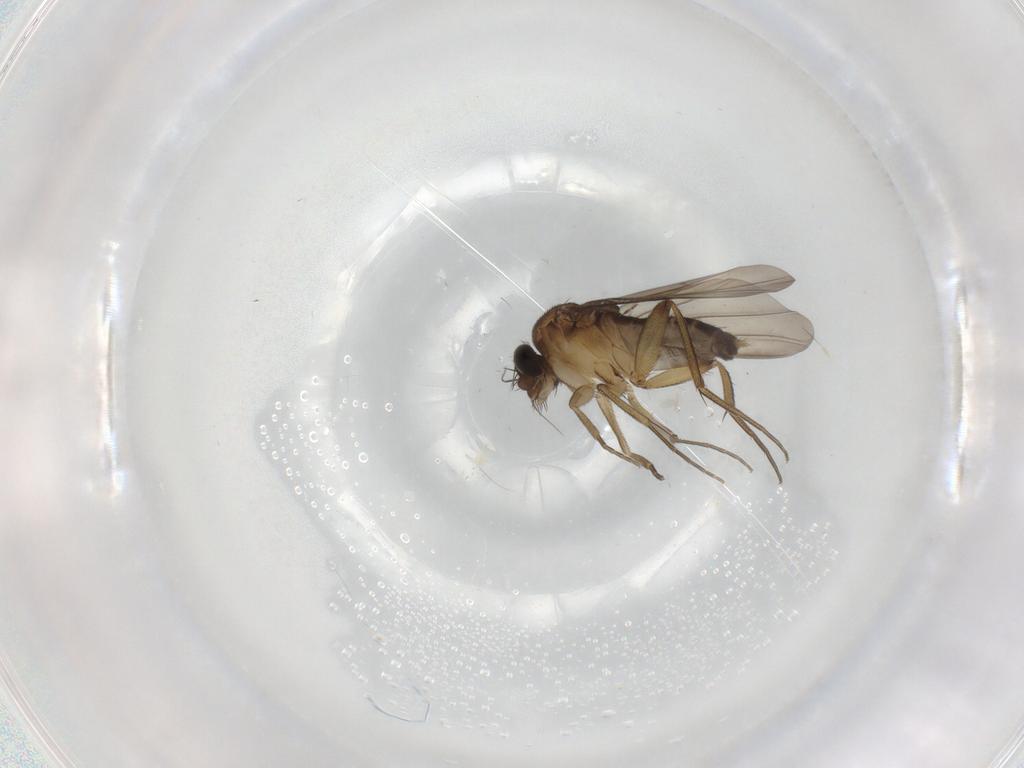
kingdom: Animalia
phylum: Arthropoda
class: Insecta
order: Diptera
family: Phoridae
